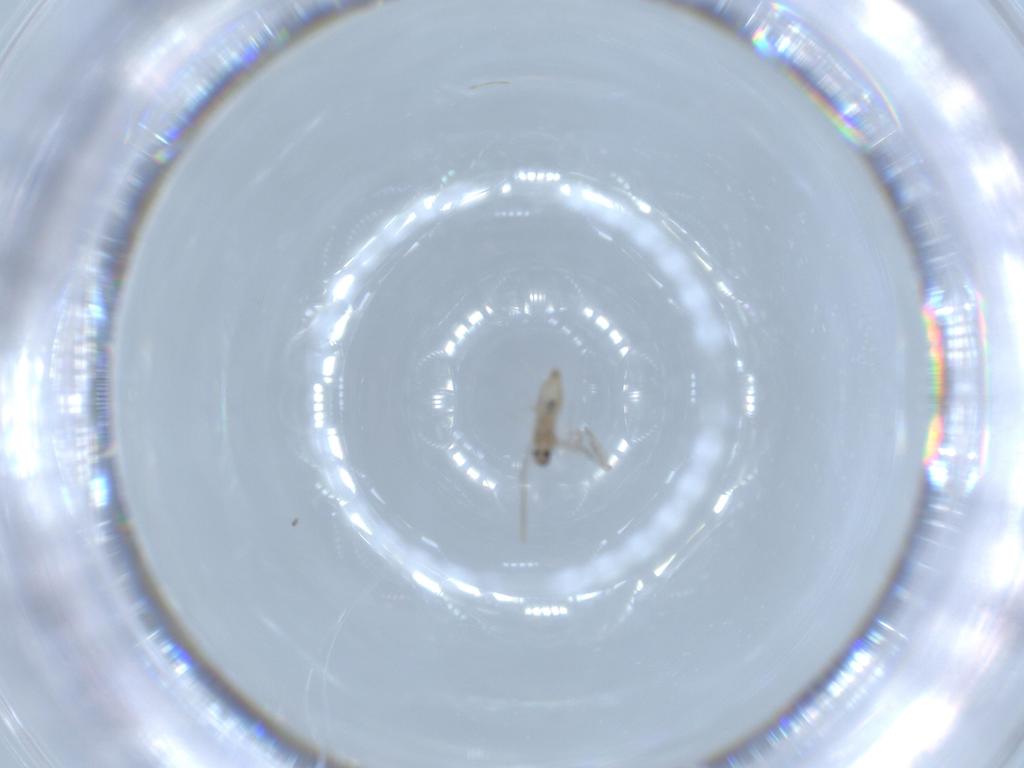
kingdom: Animalia
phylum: Arthropoda
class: Insecta
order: Diptera
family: Cecidomyiidae
